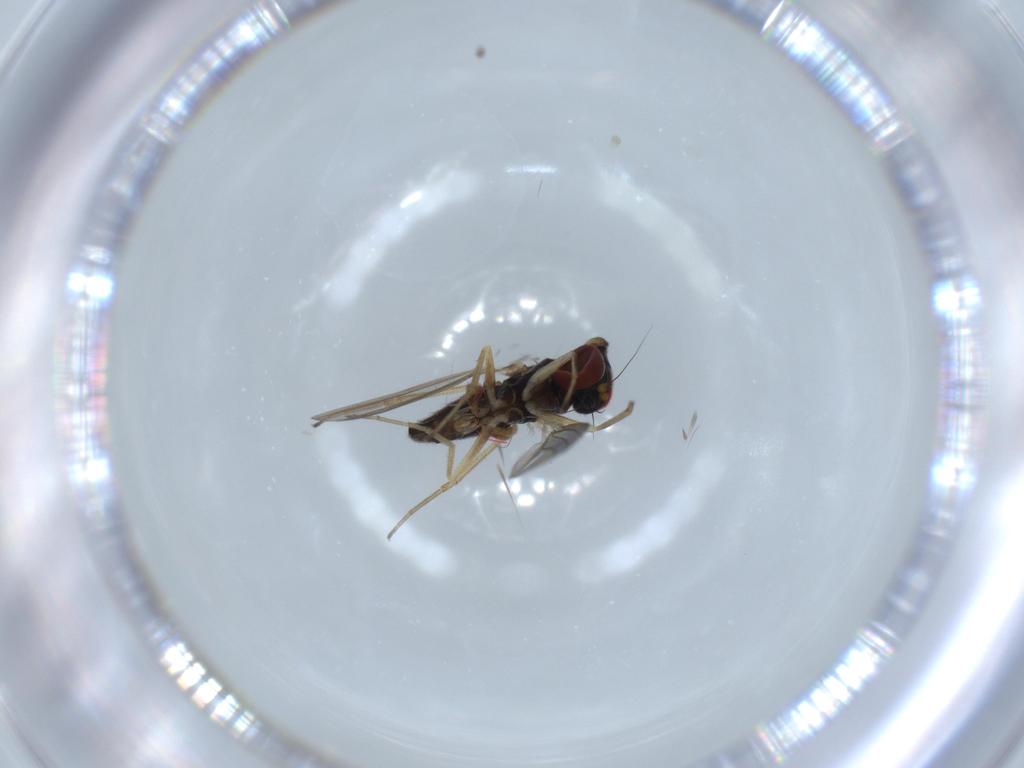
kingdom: Animalia
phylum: Arthropoda
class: Insecta
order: Diptera
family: Dolichopodidae
